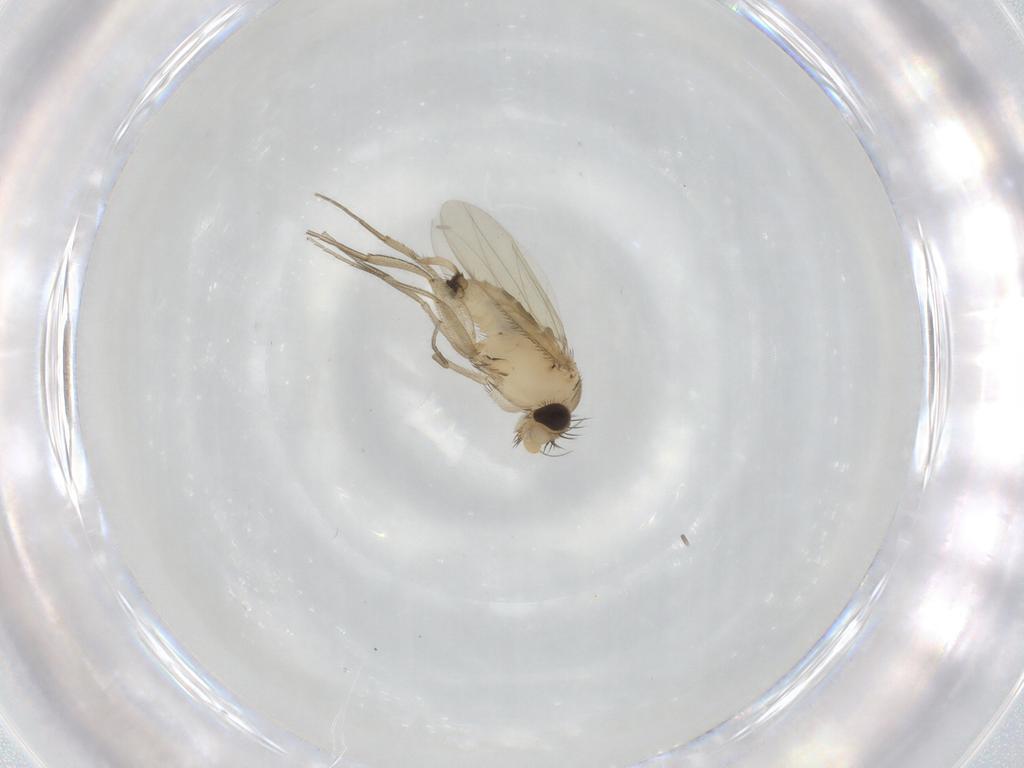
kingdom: Animalia
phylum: Arthropoda
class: Insecta
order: Diptera
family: Phoridae
